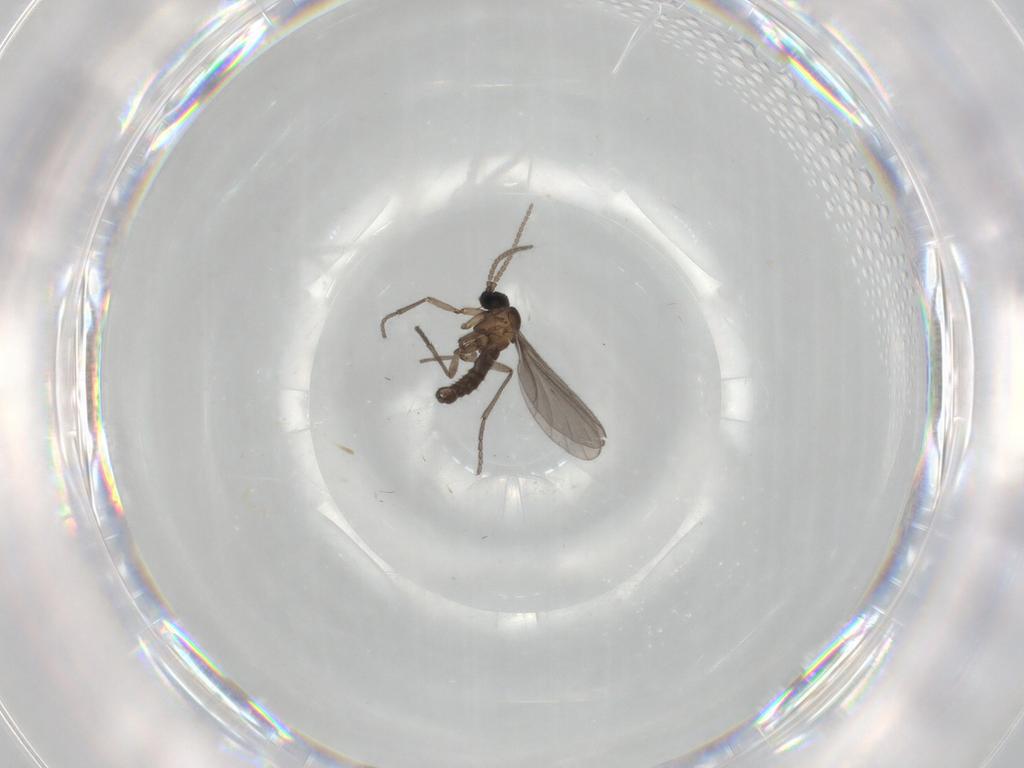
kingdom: Animalia
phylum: Arthropoda
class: Insecta
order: Diptera
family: Sciaridae
